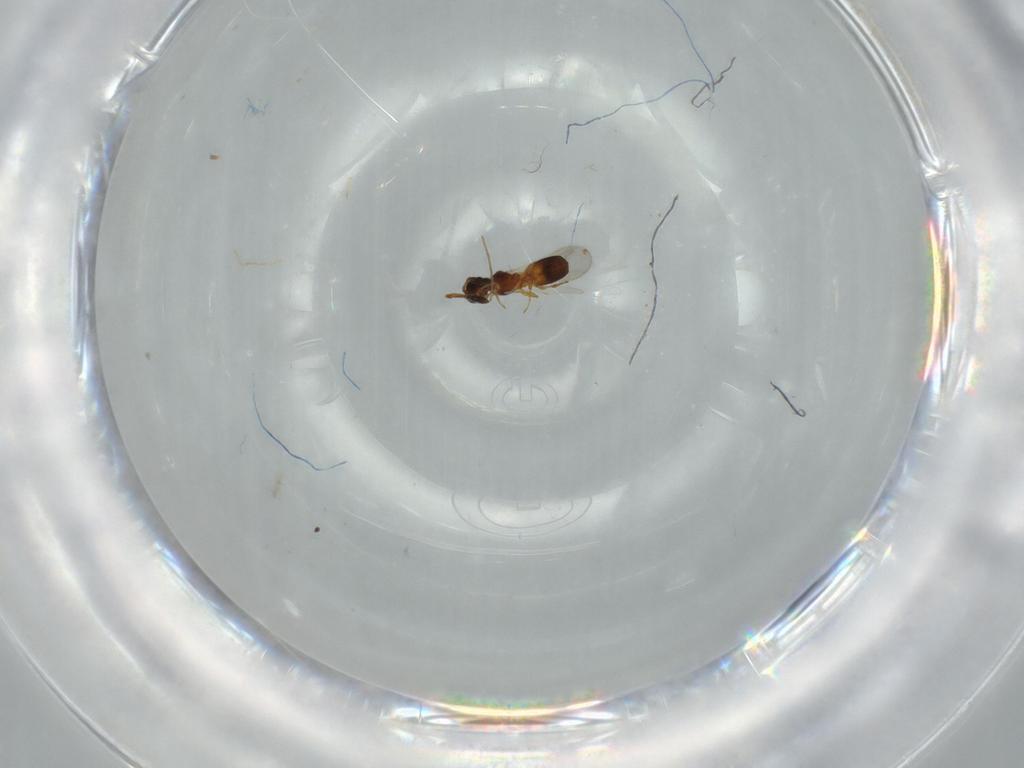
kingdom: Animalia
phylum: Arthropoda
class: Insecta
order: Hymenoptera
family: Diapriidae
